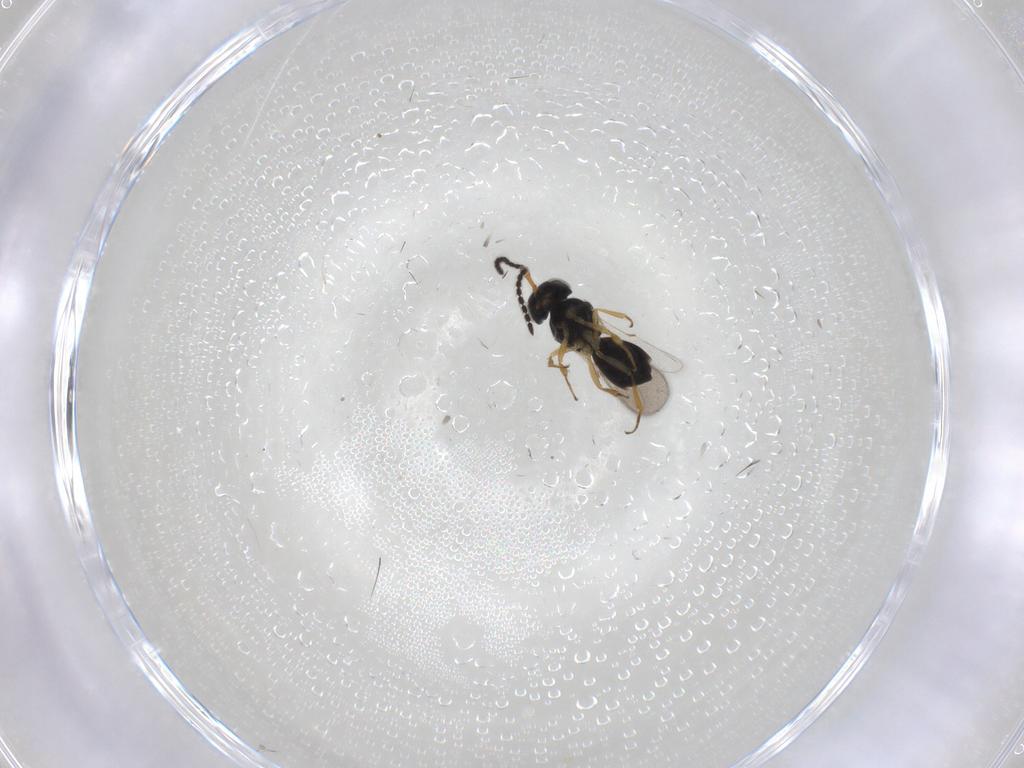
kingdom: Animalia
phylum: Arthropoda
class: Insecta
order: Hymenoptera
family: Scelionidae
